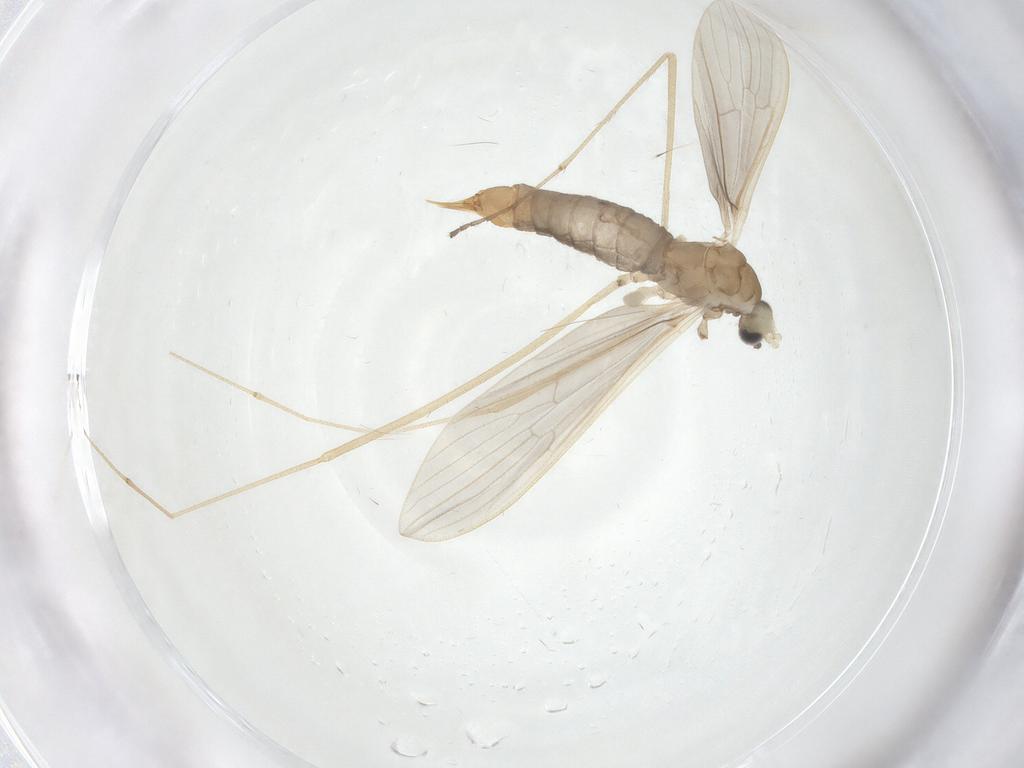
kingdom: Animalia
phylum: Arthropoda
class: Insecta
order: Diptera
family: Limoniidae
